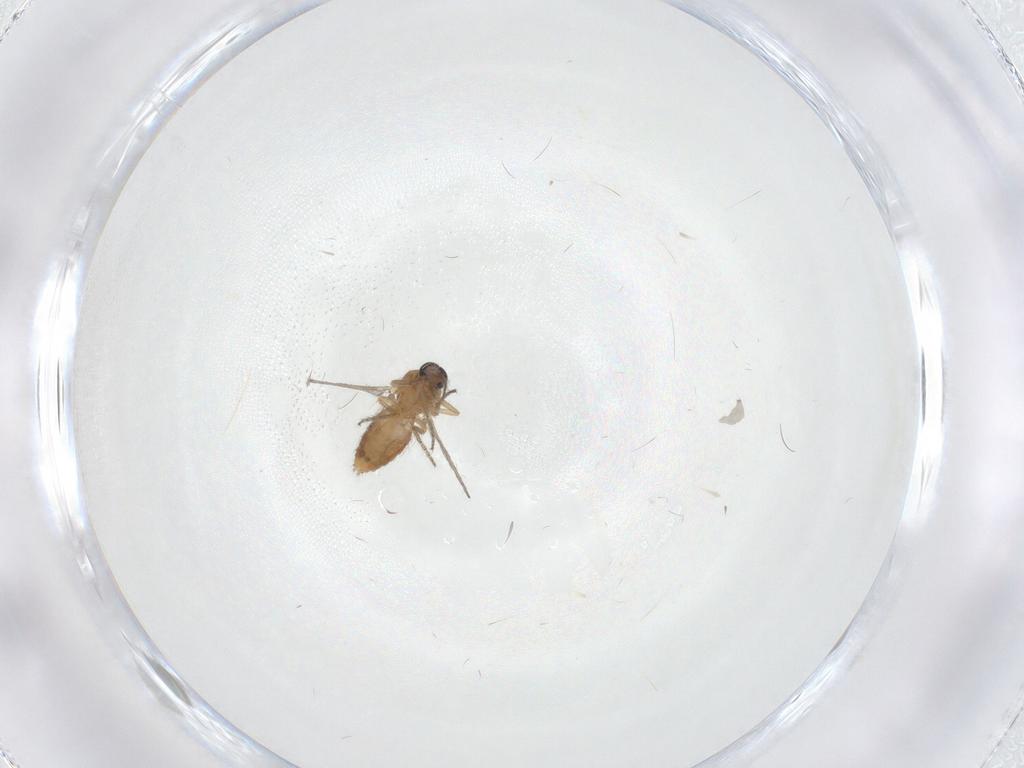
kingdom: Animalia
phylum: Arthropoda
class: Insecta
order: Diptera
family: Ceratopogonidae
